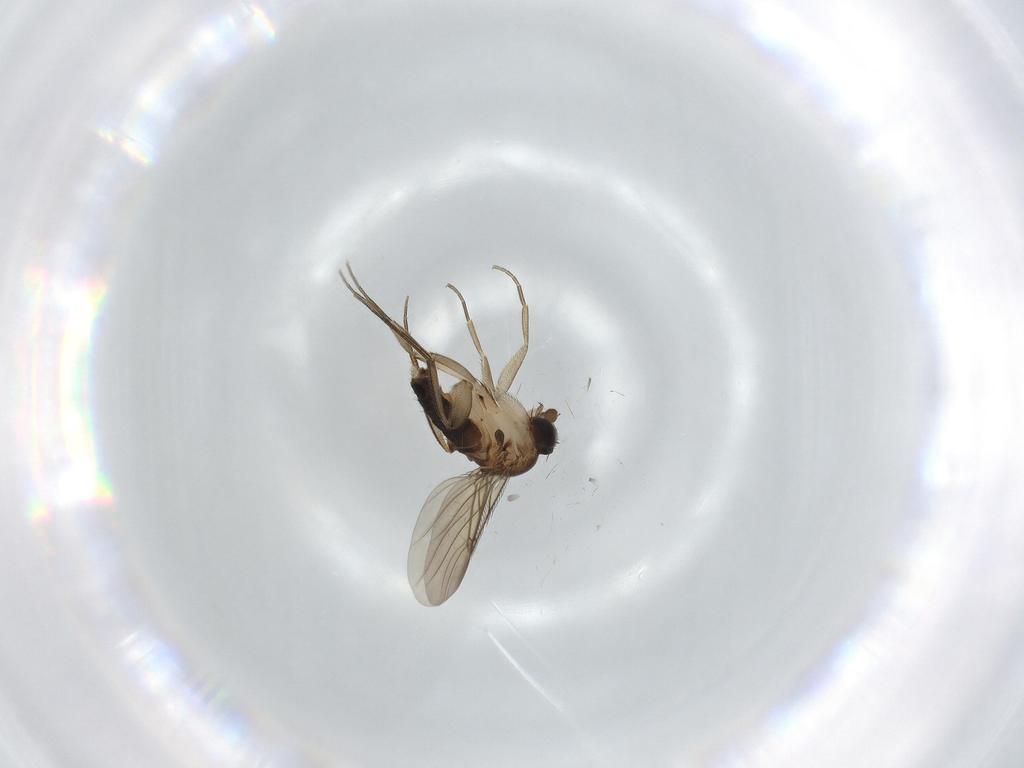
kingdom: Animalia
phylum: Arthropoda
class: Insecta
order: Diptera
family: Phoridae
